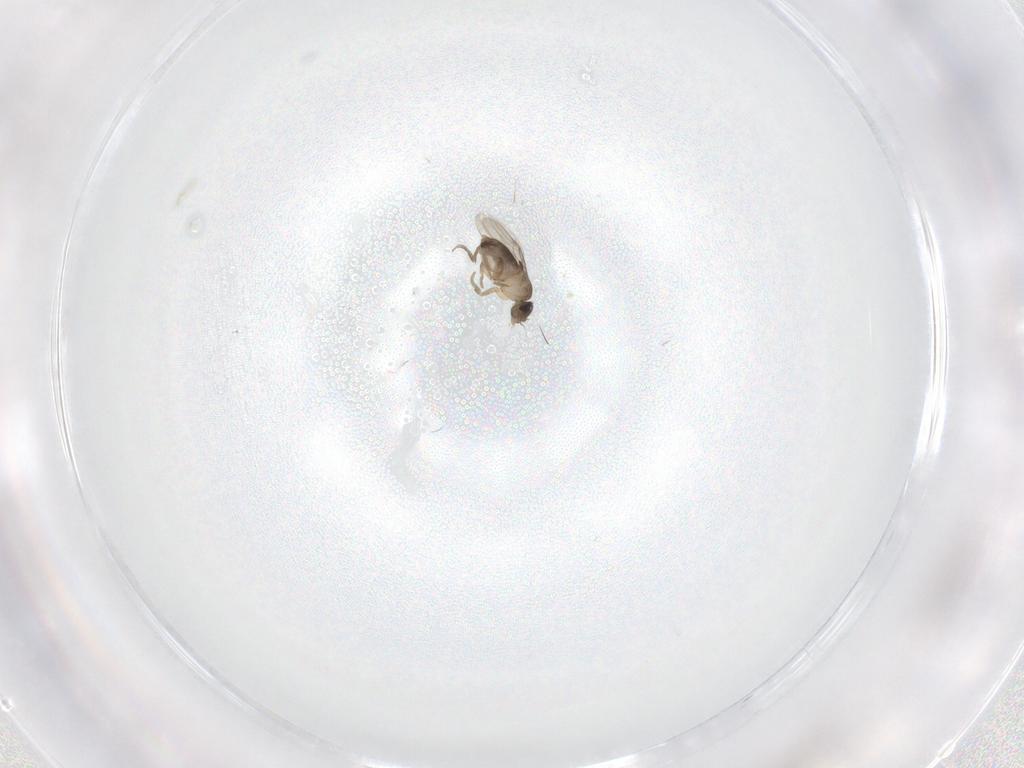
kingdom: Animalia
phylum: Arthropoda
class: Insecta
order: Diptera
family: Phoridae
